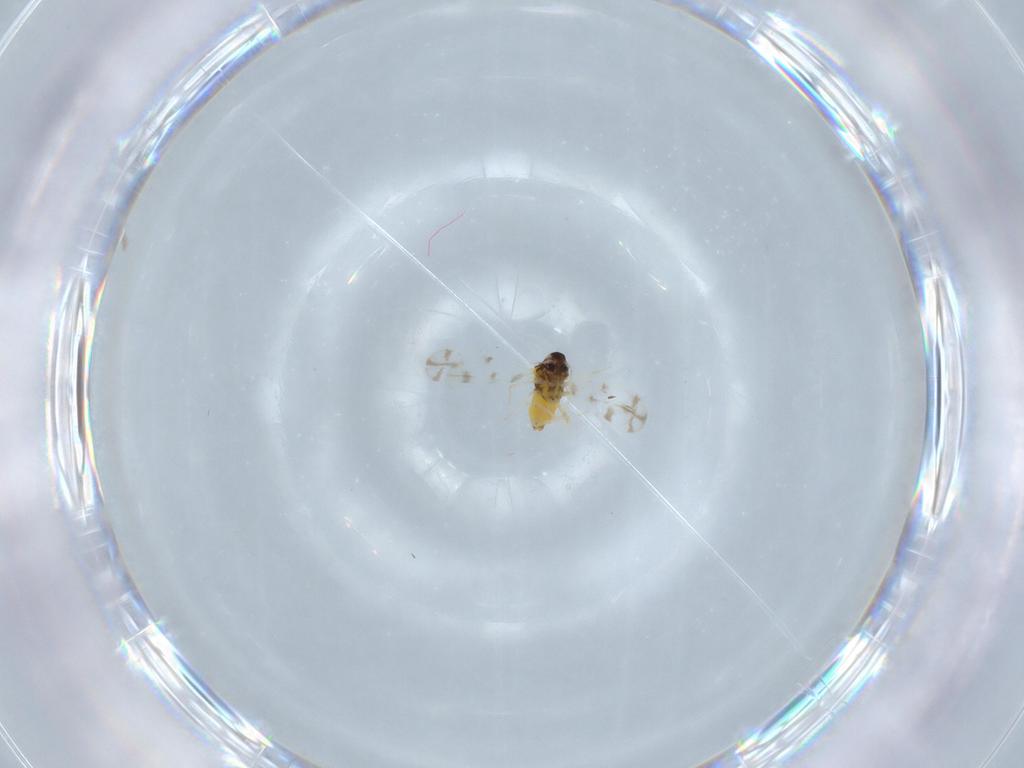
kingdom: Animalia
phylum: Arthropoda
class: Insecta
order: Hemiptera
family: Aleyrodidae
